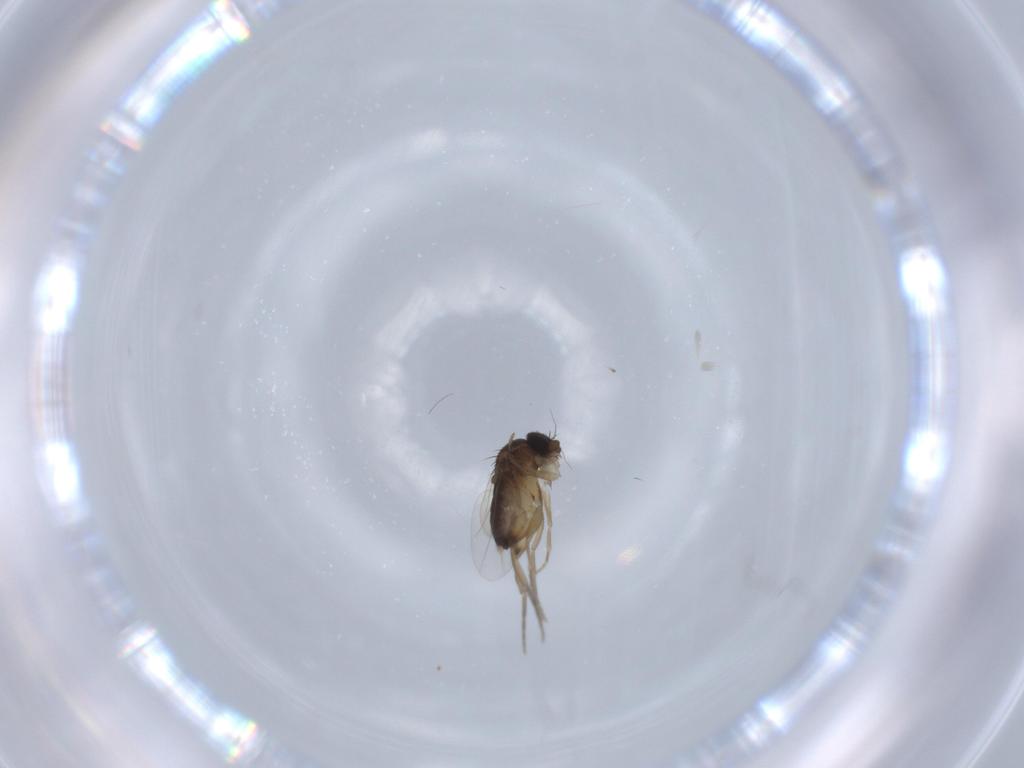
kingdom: Animalia
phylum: Arthropoda
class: Insecta
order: Diptera
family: Phoridae
